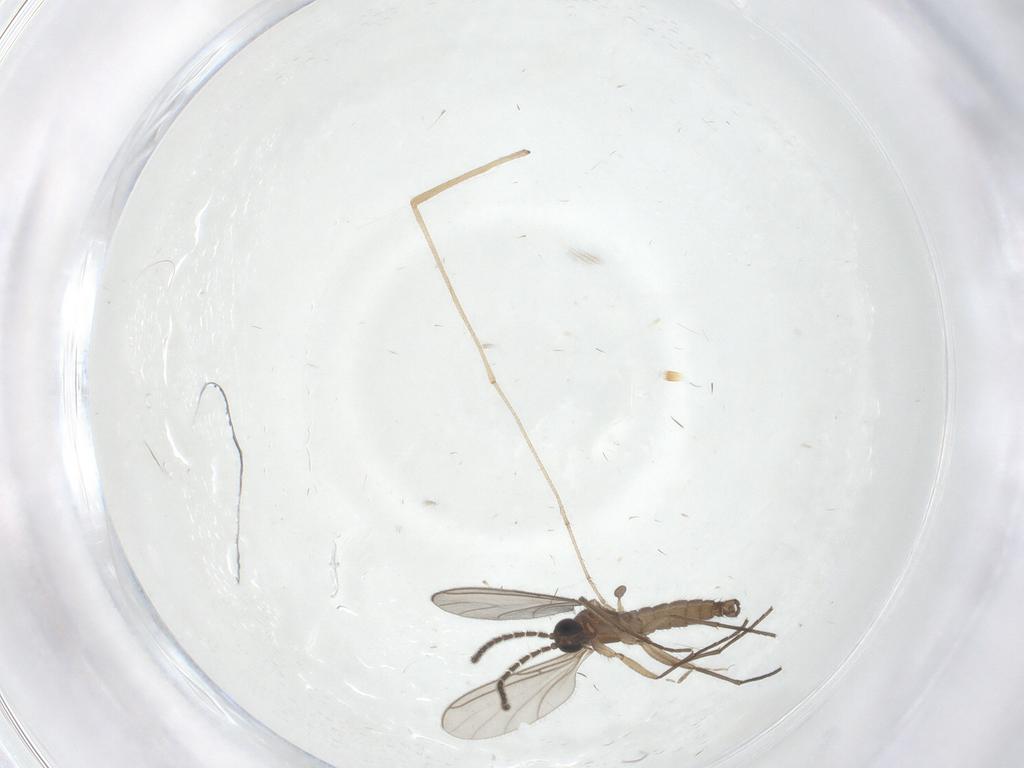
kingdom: Animalia
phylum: Arthropoda
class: Insecta
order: Diptera
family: Sciaridae
